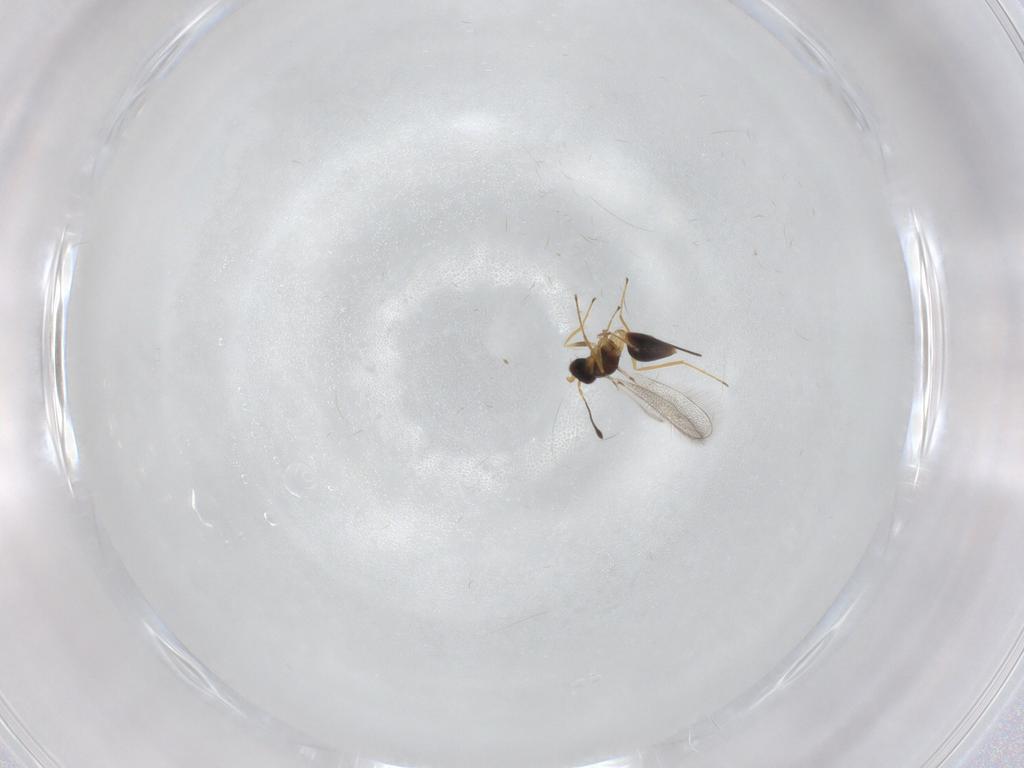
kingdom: Animalia
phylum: Arthropoda
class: Insecta
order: Hymenoptera
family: Mymaridae
